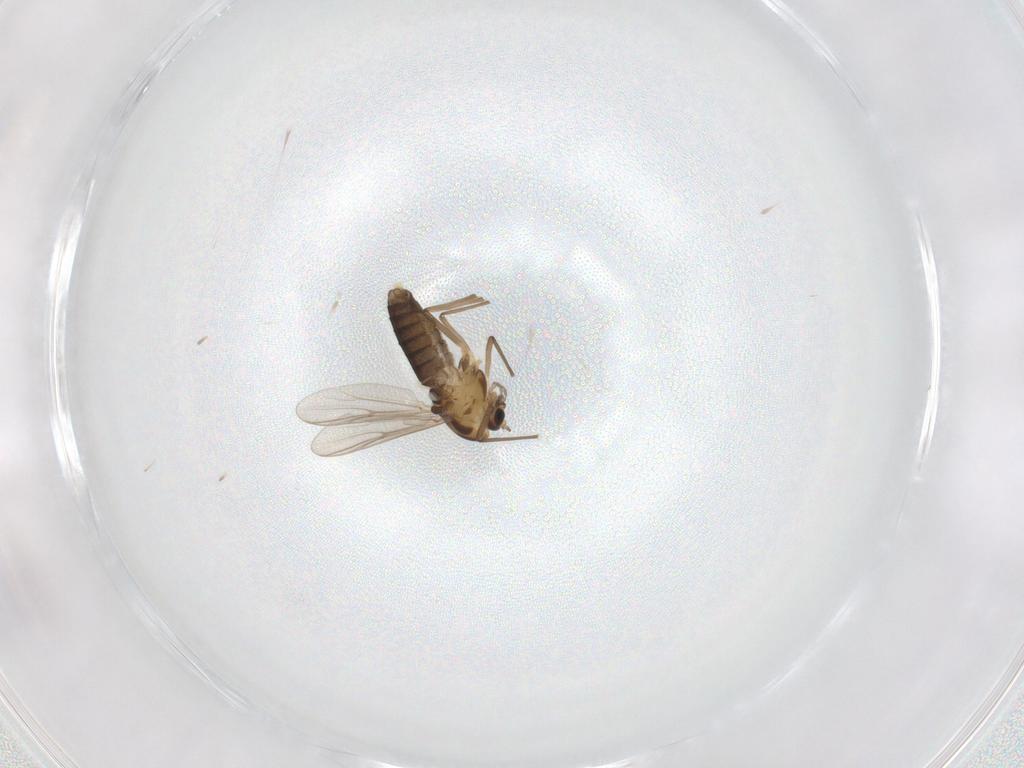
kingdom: Animalia
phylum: Arthropoda
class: Insecta
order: Diptera
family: Chironomidae
